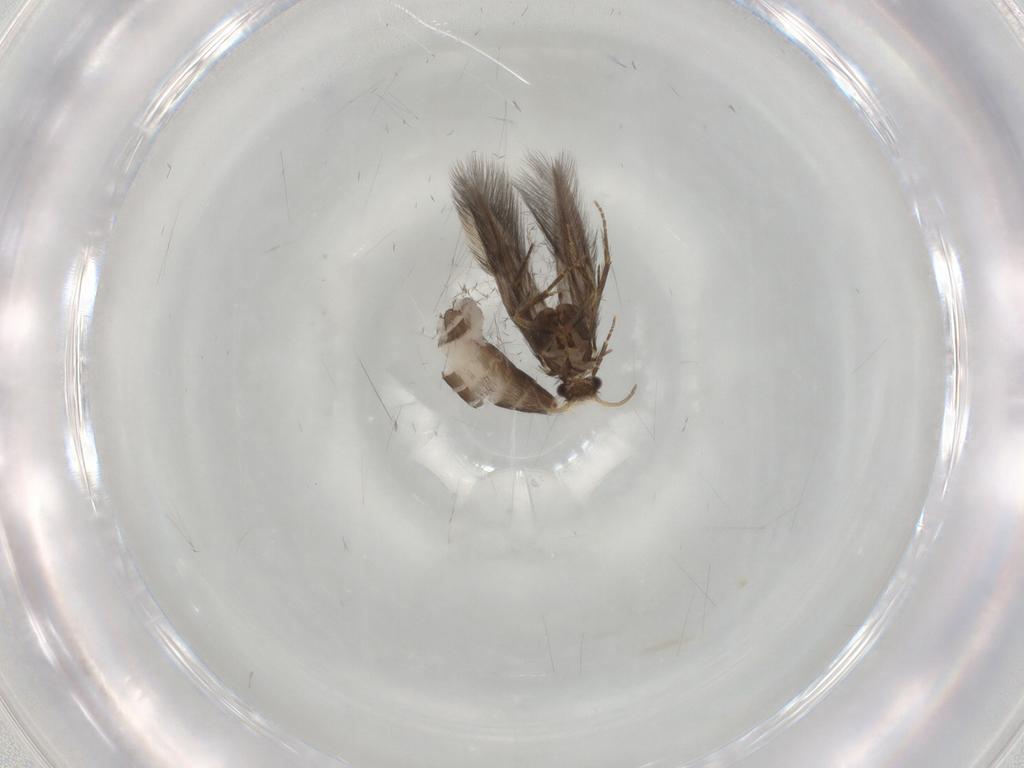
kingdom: Animalia
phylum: Arthropoda
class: Insecta
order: Trichoptera
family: Hydroptilidae
